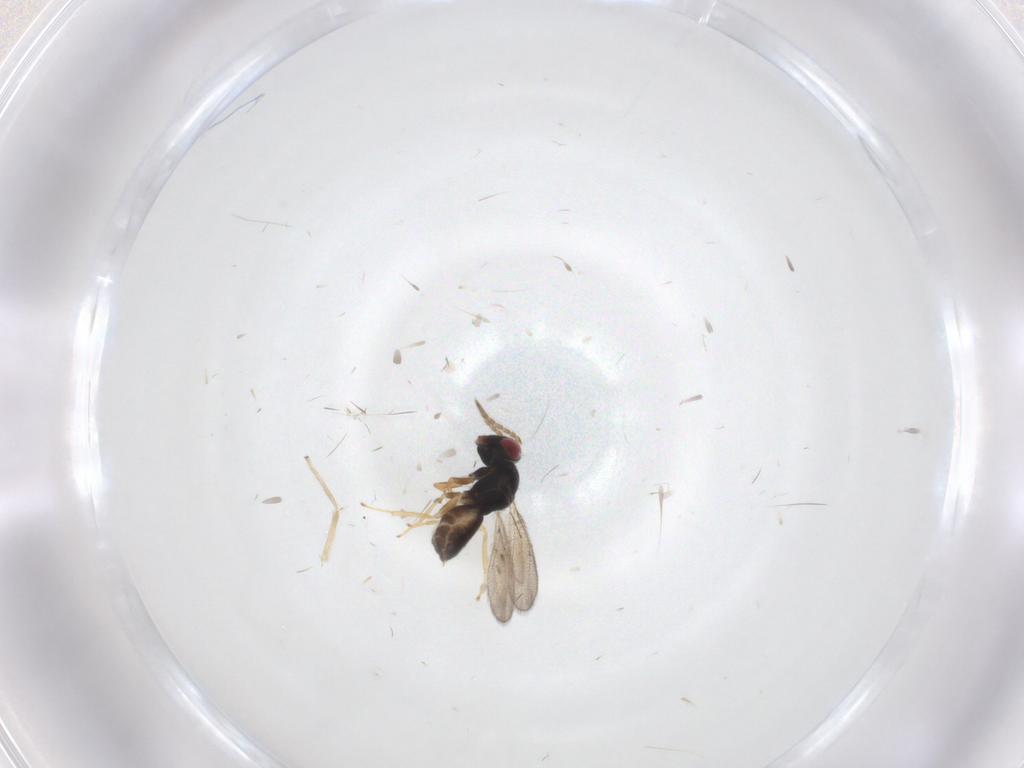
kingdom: Animalia
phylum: Arthropoda
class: Insecta
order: Hymenoptera
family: Eulophidae
